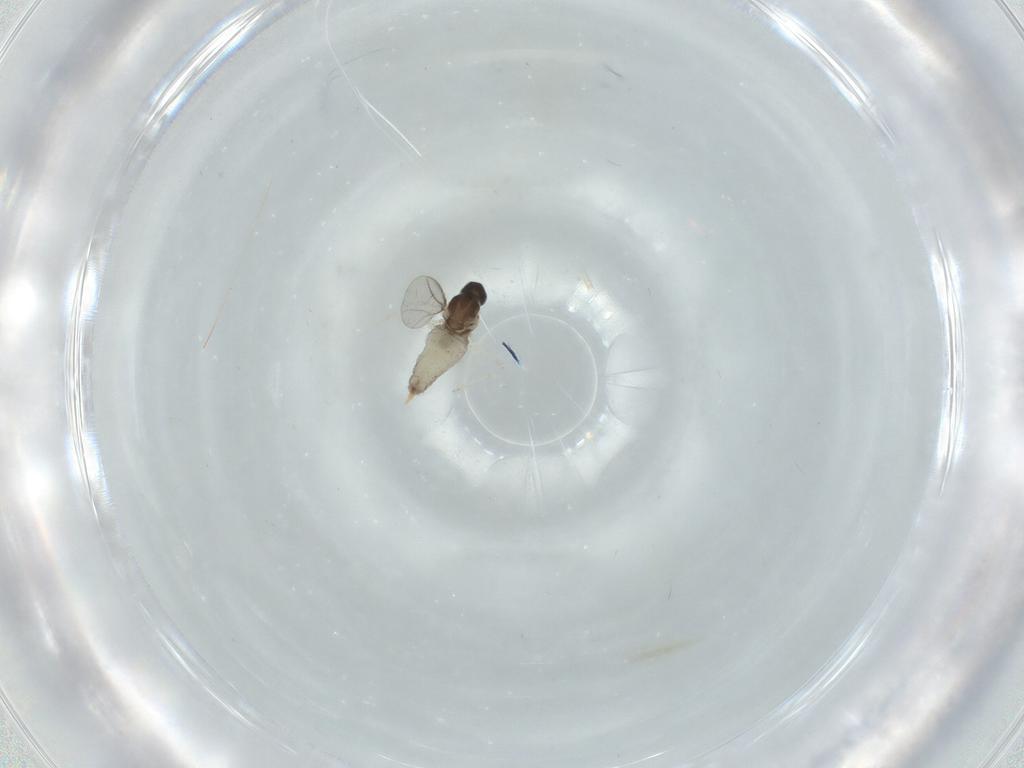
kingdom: Animalia
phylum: Arthropoda
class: Insecta
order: Diptera
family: Cecidomyiidae
